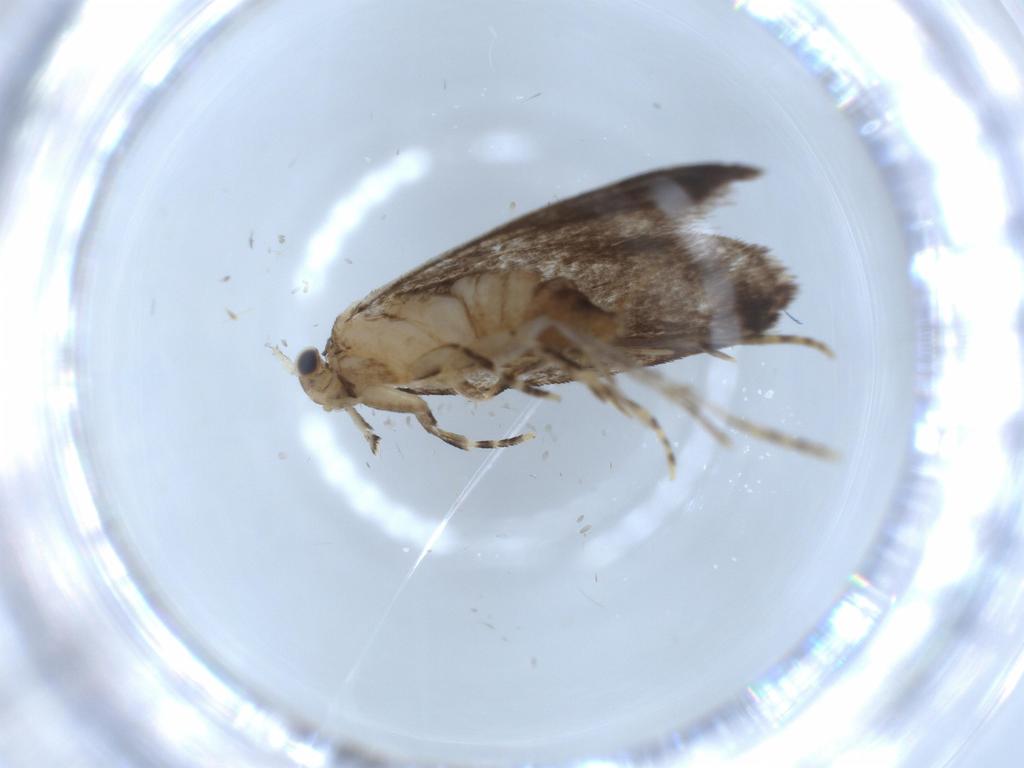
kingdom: Animalia
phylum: Arthropoda
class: Insecta
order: Lepidoptera
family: Tineidae
